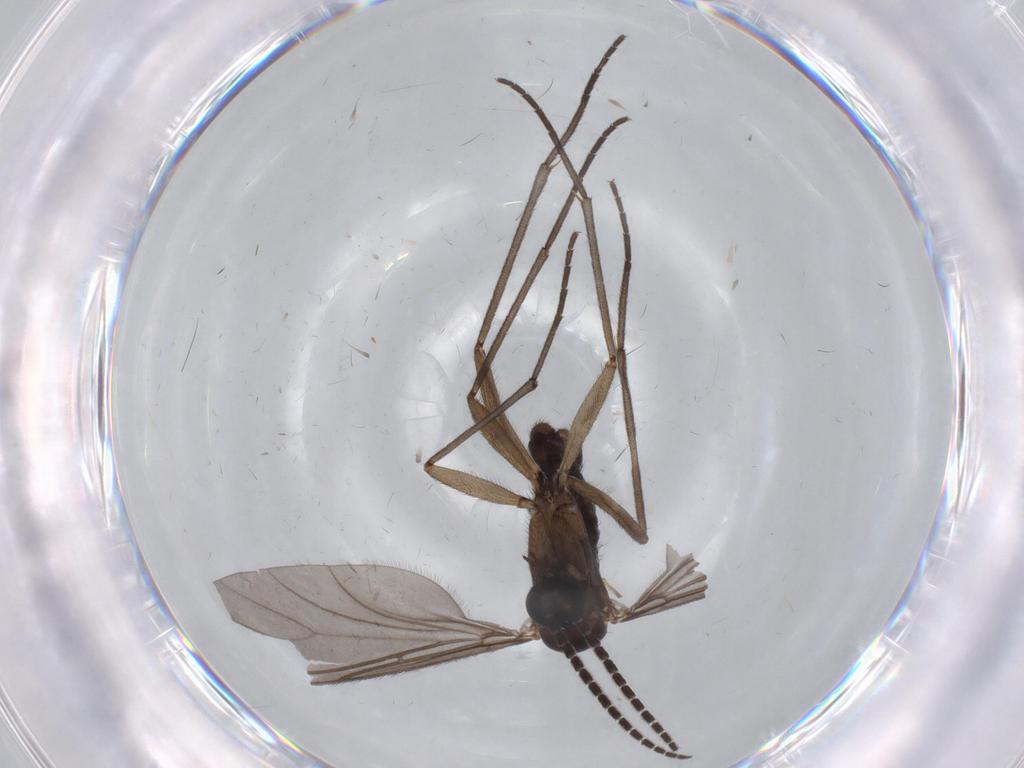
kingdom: Animalia
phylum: Arthropoda
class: Insecta
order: Diptera
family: Sciaridae
